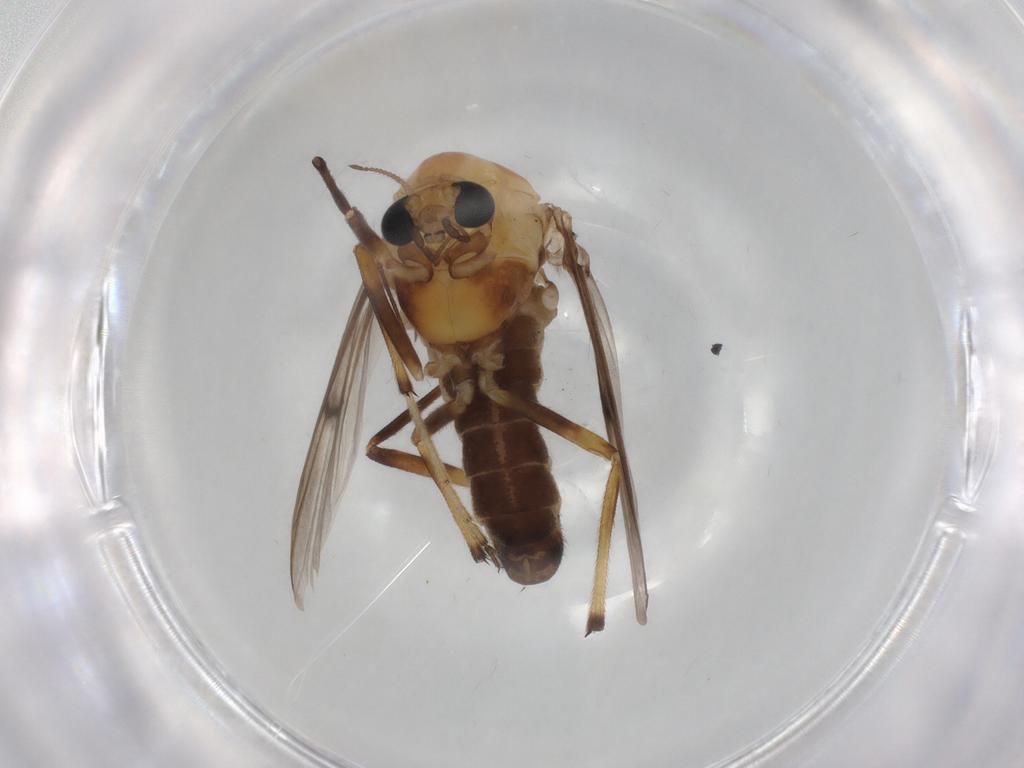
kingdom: Animalia
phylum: Arthropoda
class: Insecta
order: Diptera
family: Chironomidae
